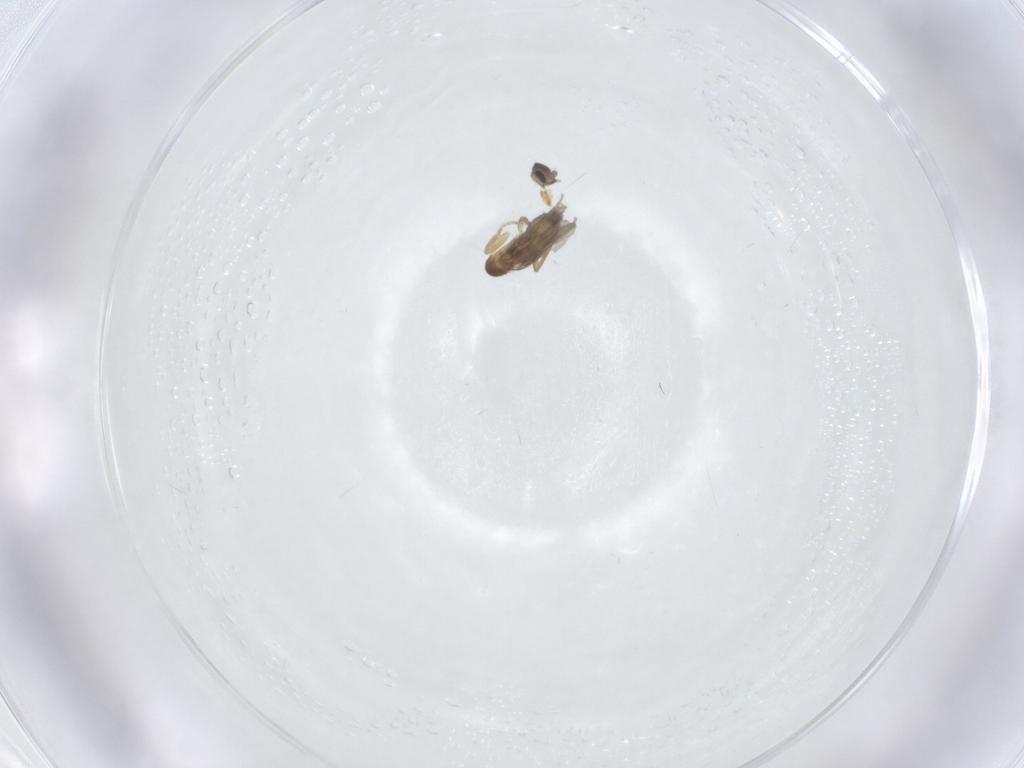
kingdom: Animalia
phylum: Arthropoda
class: Insecta
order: Diptera
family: Phoridae
